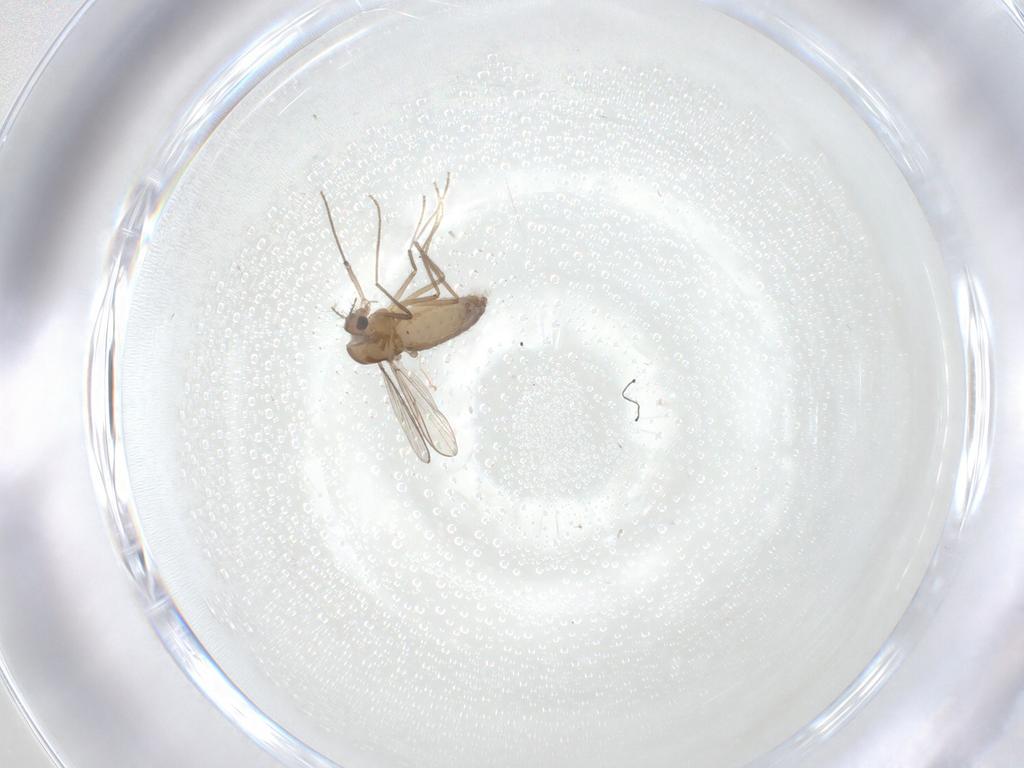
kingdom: Animalia
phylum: Arthropoda
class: Insecta
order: Diptera
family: Chironomidae
